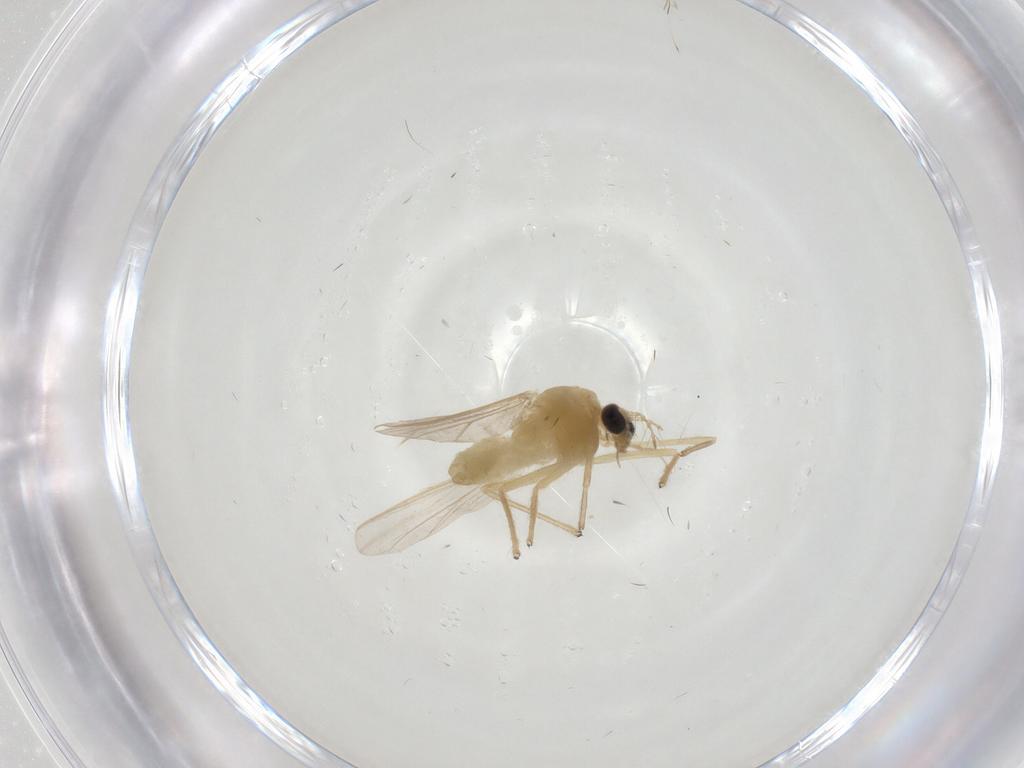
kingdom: Animalia
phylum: Arthropoda
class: Insecta
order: Diptera
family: Chironomidae
